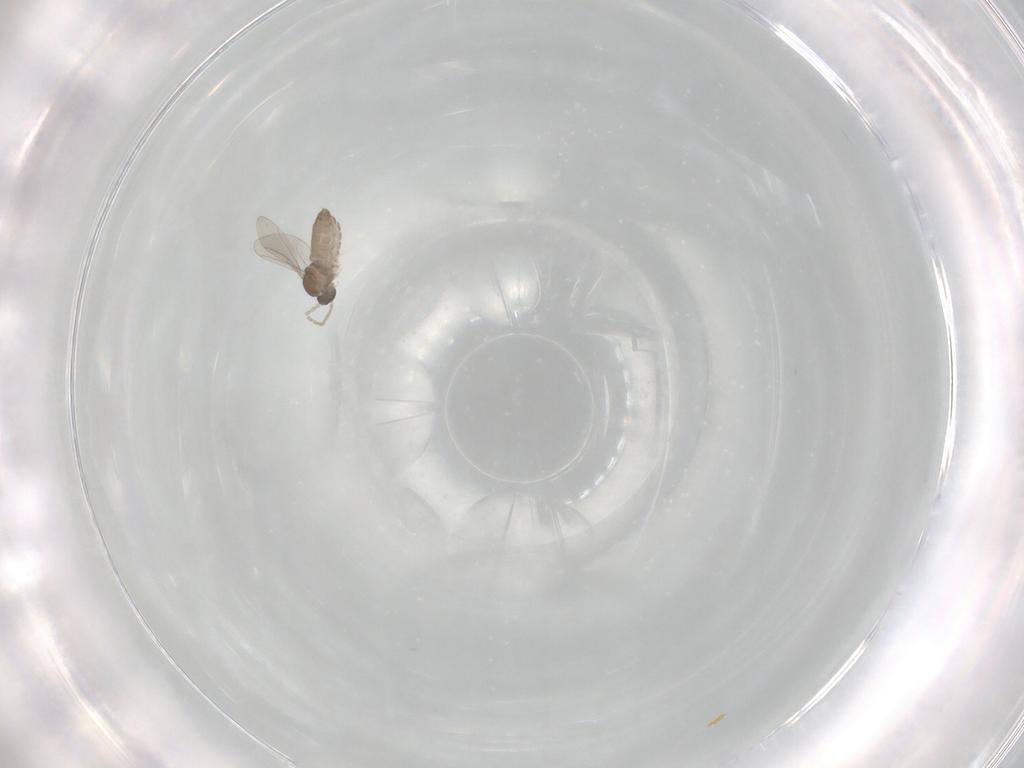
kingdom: Animalia
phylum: Arthropoda
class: Insecta
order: Diptera
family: Cecidomyiidae
